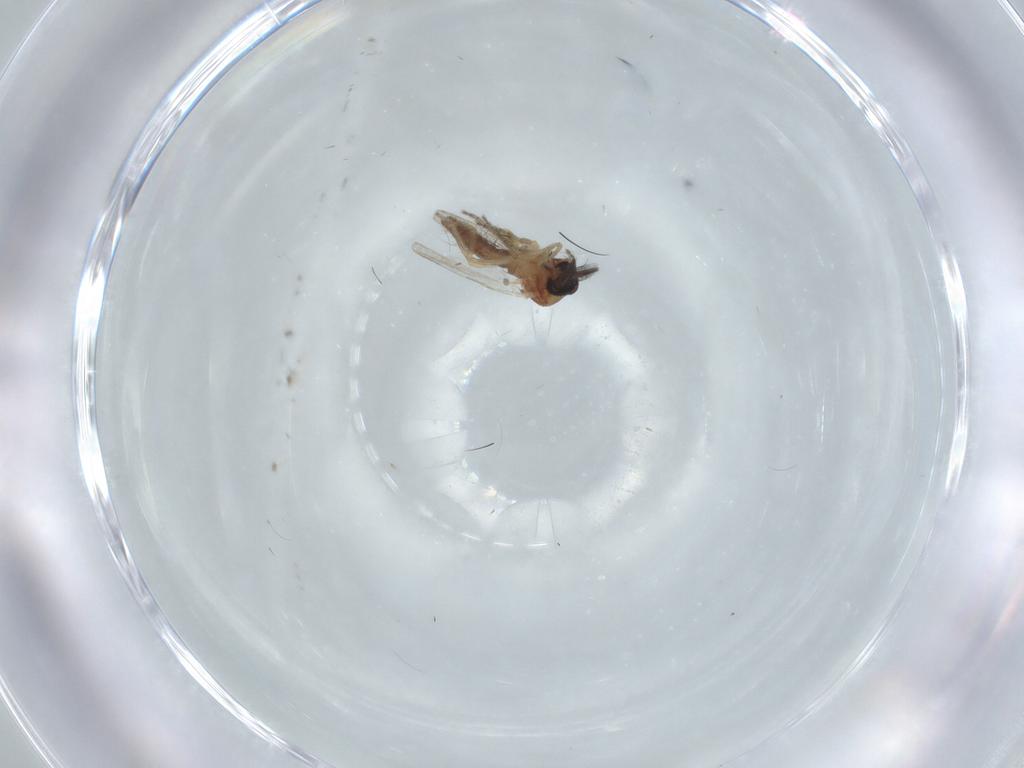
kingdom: Animalia
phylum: Arthropoda
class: Insecta
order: Diptera
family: Ceratopogonidae
